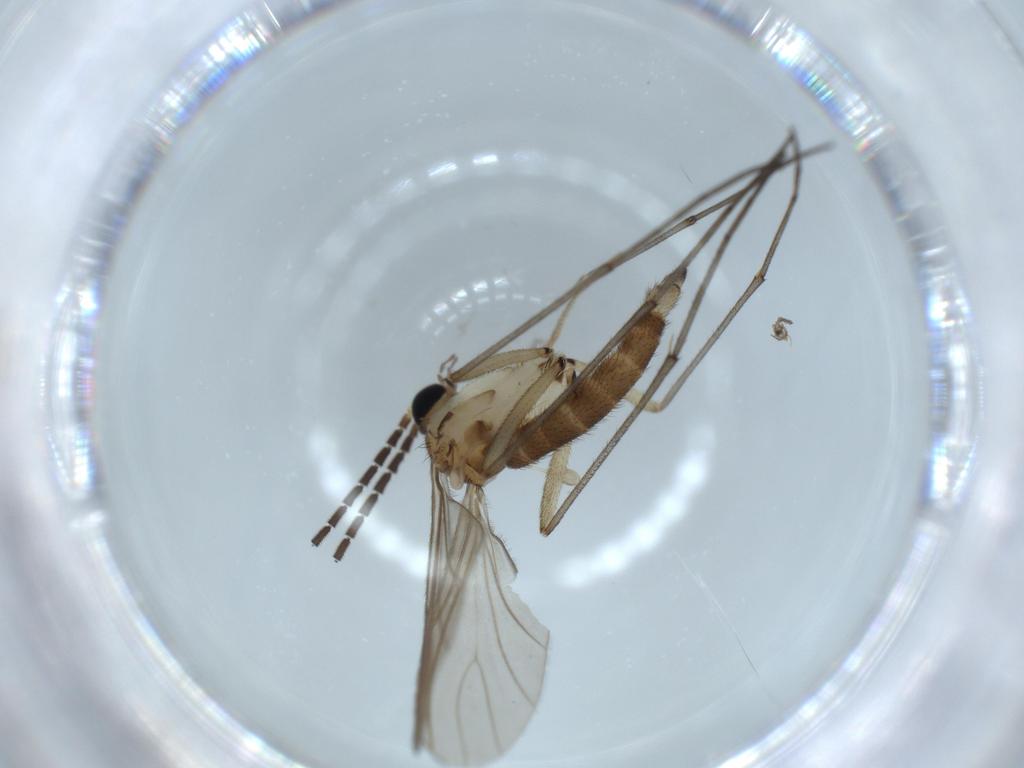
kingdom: Animalia
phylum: Arthropoda
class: Insecta
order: Diptera
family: Sciaridae
